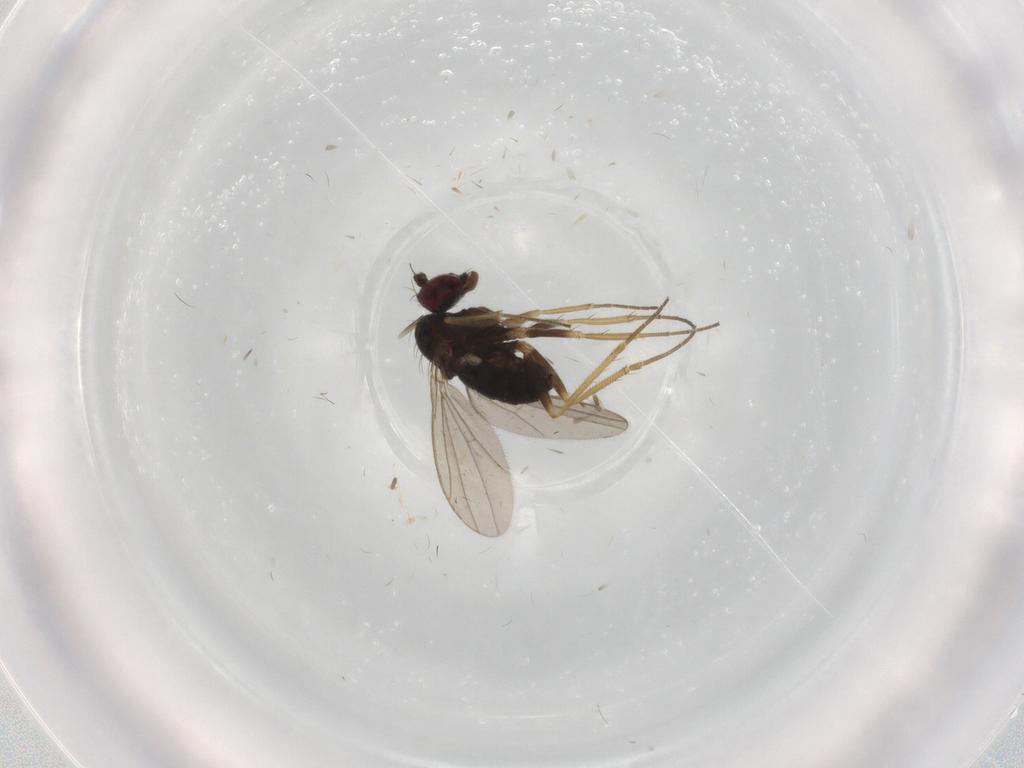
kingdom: Animalia
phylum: Arthropoda
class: Insecta
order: Diptera
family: Dolichopodidae
